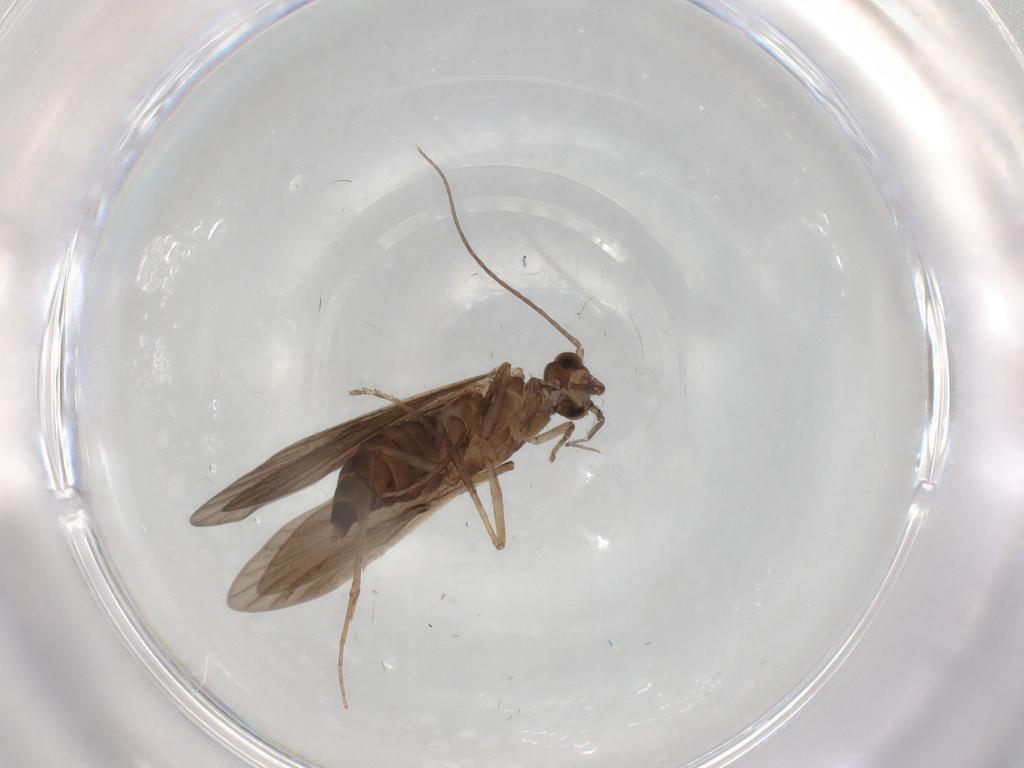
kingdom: Animalia
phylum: Arthropoda
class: Insecta
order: Trichoptera
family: Xiphocentronidae
